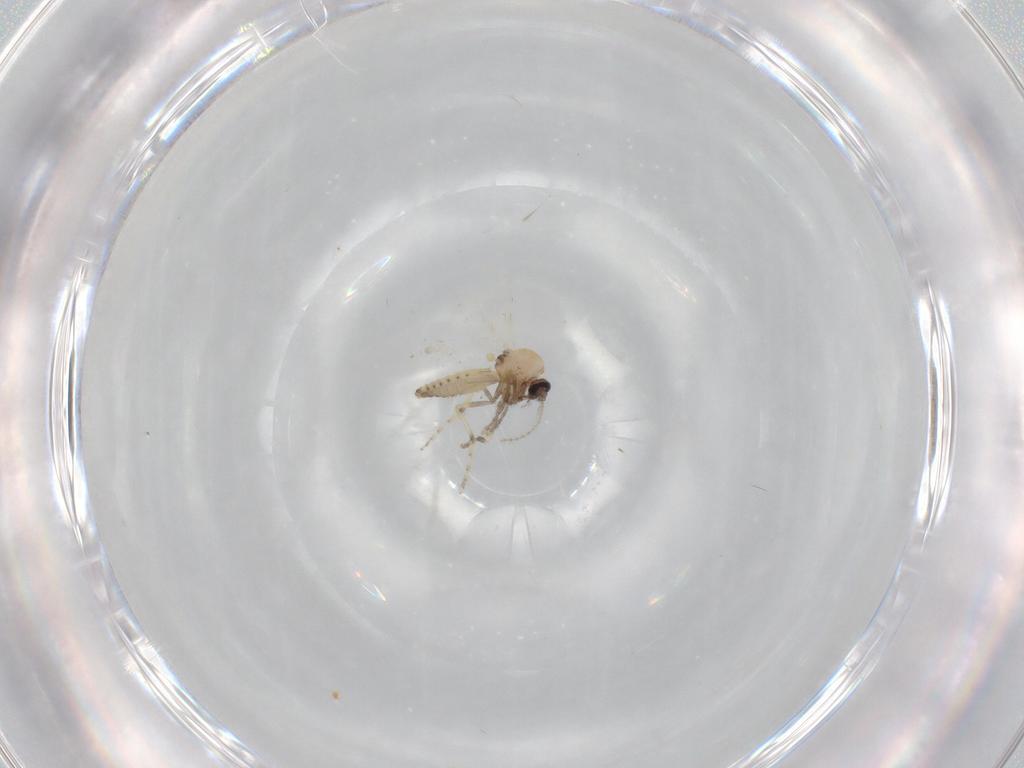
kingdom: Animalia
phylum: Arthropoda
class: Insecta
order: Diptera
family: Ceratopogonidae
